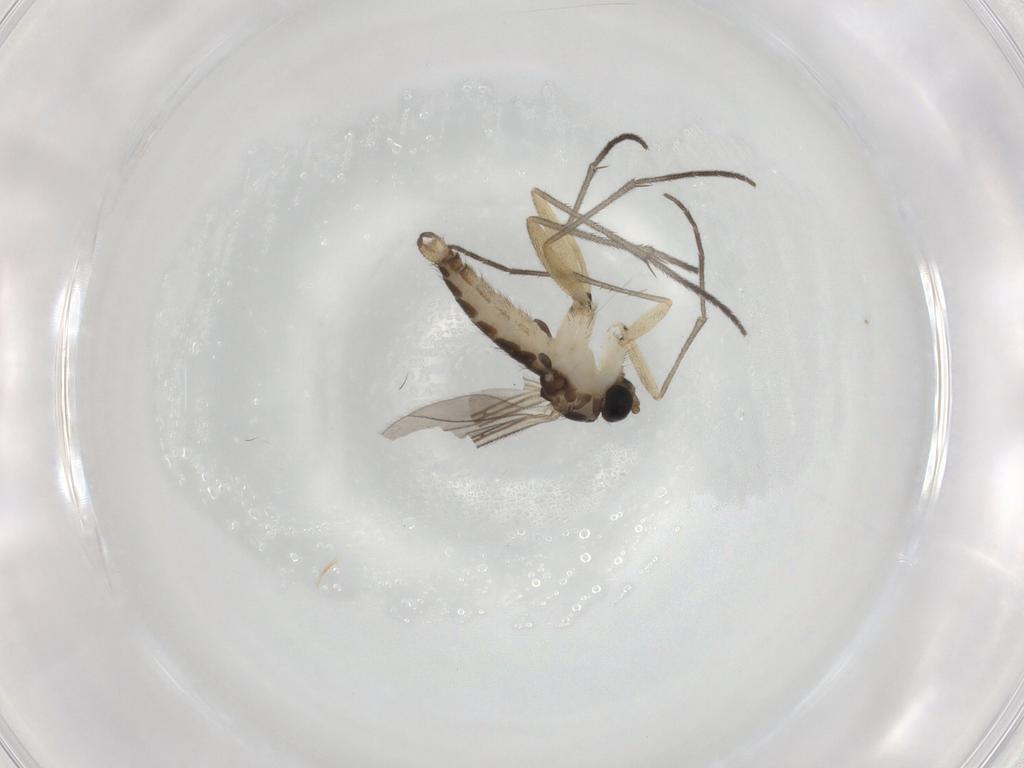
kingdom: Animalia
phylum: Arthropoda
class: Insecta
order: Diptera
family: Sciaridae
